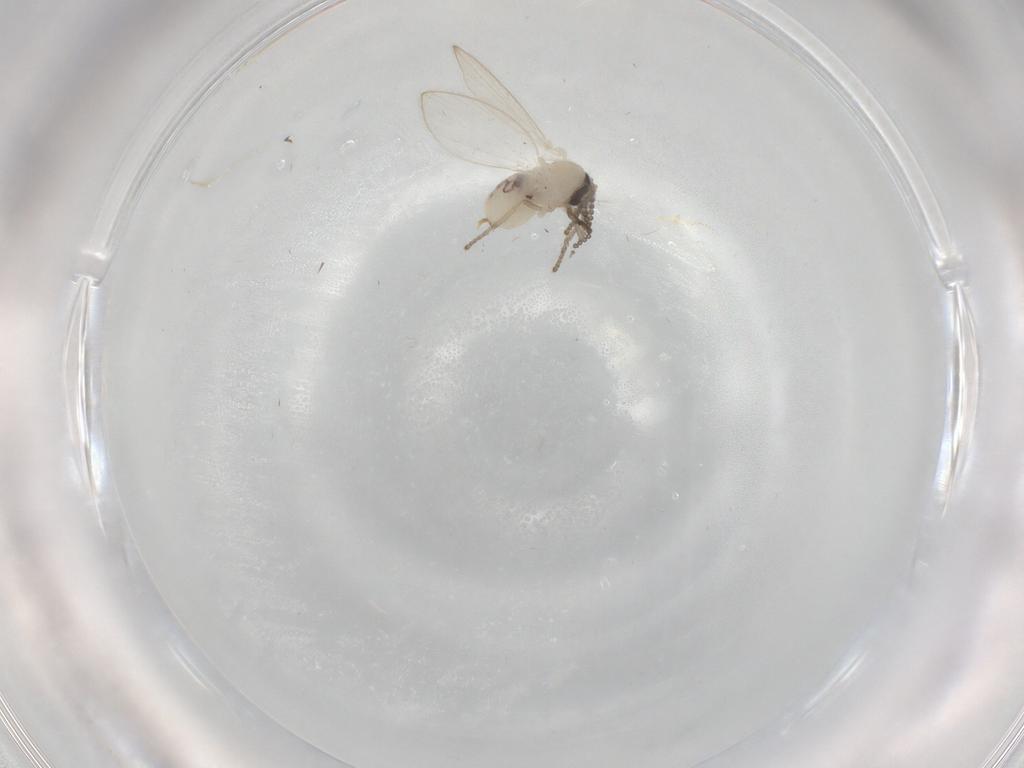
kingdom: Animalia
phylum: Arthropoda
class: Insecta
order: Diptera
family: Psychodidae
